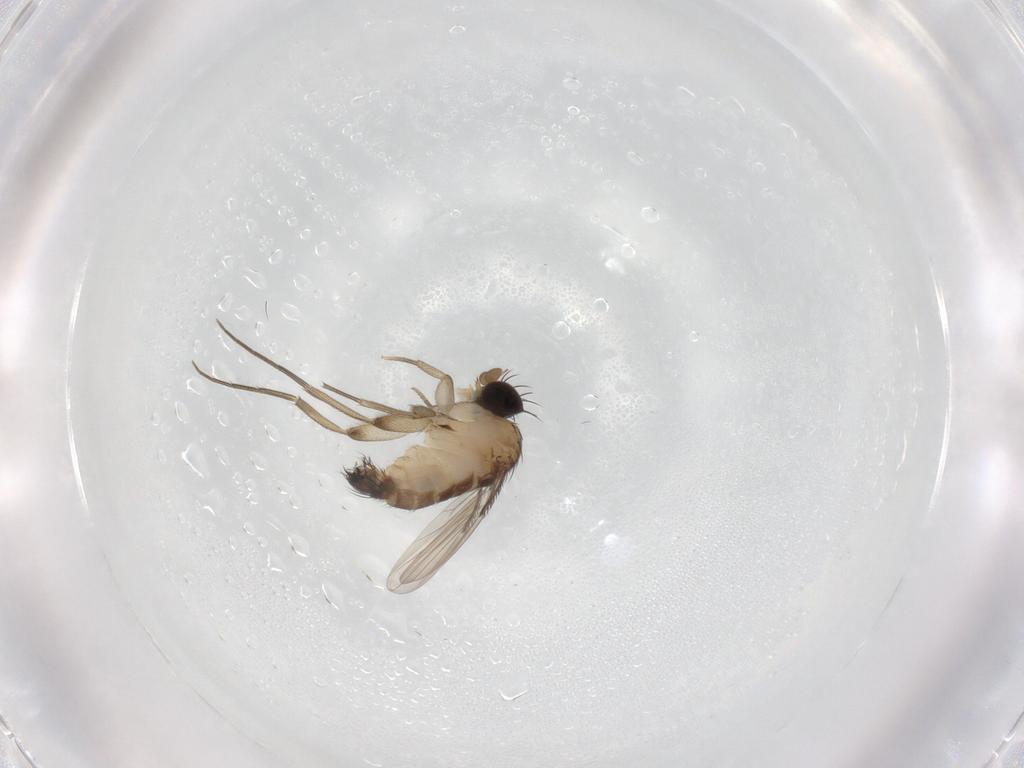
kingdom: Animalia
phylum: Arthropoda
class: Insecta
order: Diptera
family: Phoridae
